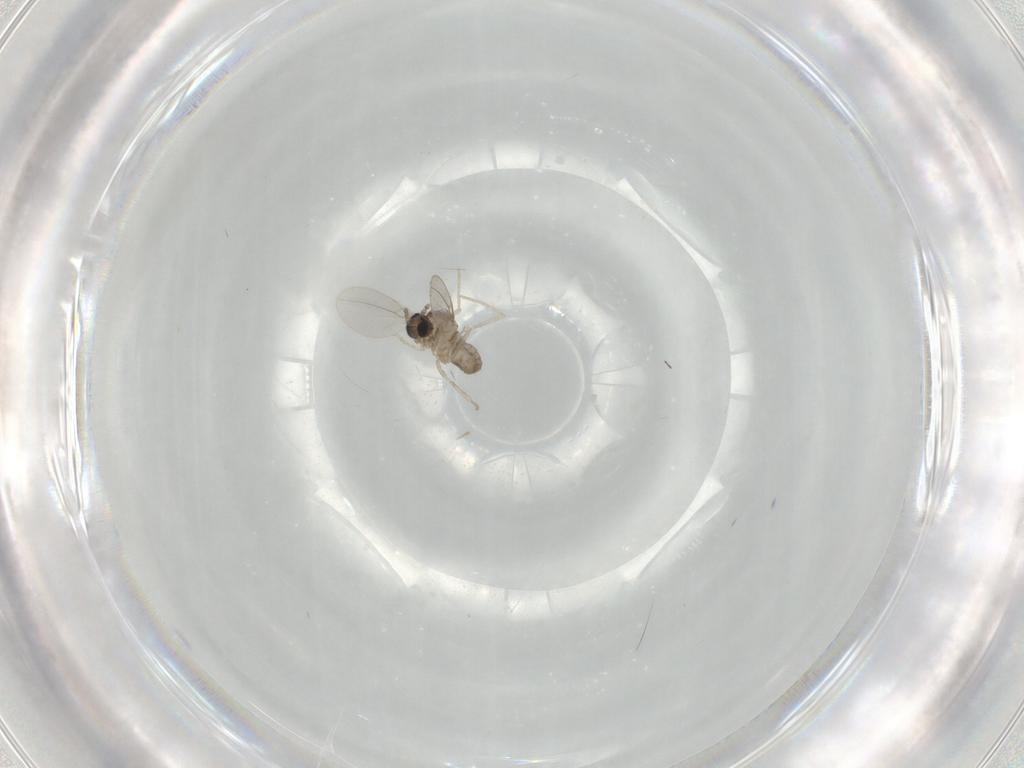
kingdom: Animalia
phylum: Arthropoda
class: Insecta
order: Diptera
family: Cecidomyiidae
